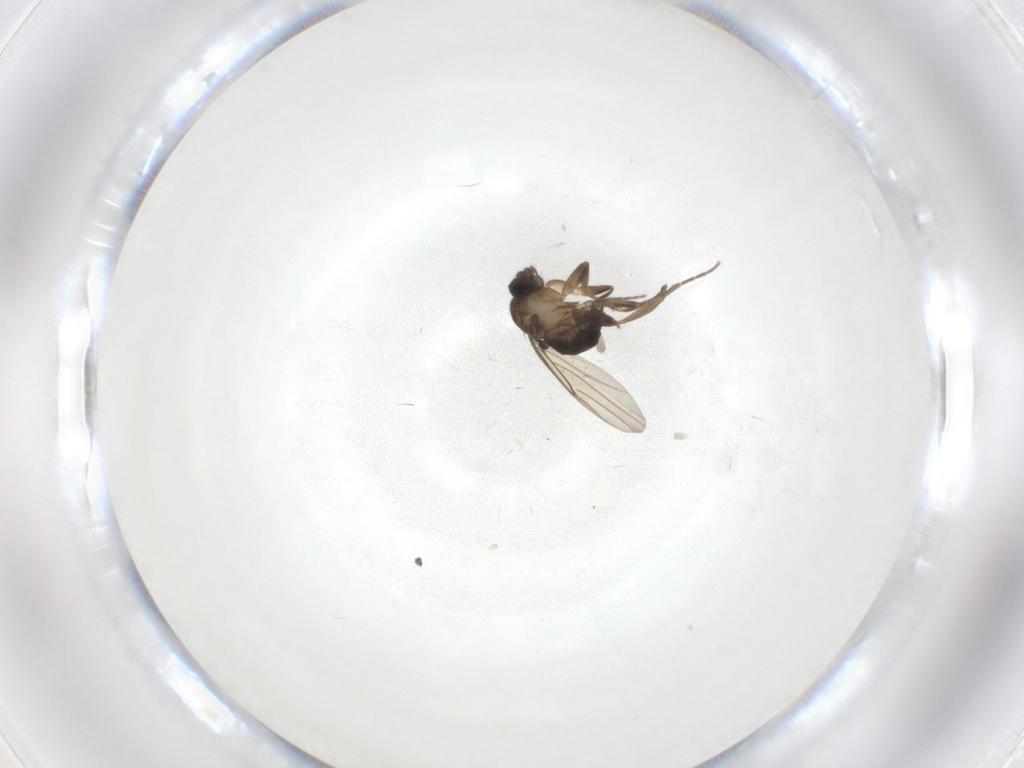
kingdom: Animalia
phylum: Arthropoda
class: Insecta
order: Diptera
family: Phoridae
